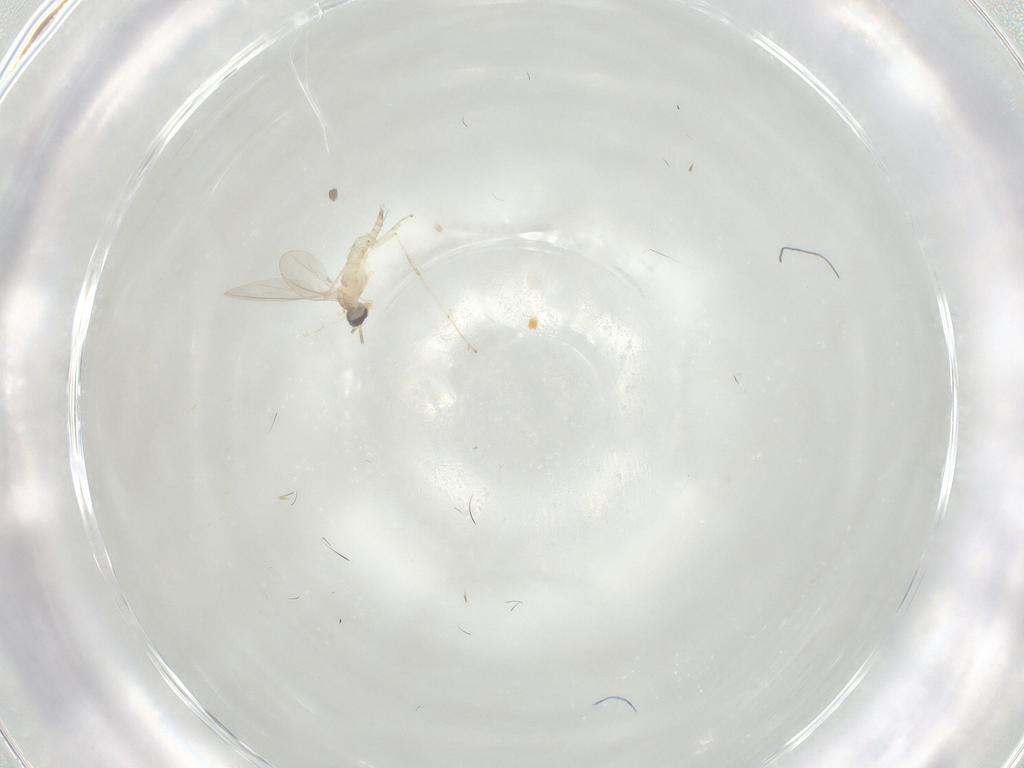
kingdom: Animalia
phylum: Arthropoda
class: Insecta
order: Diptera
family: Cecidomyiidae
